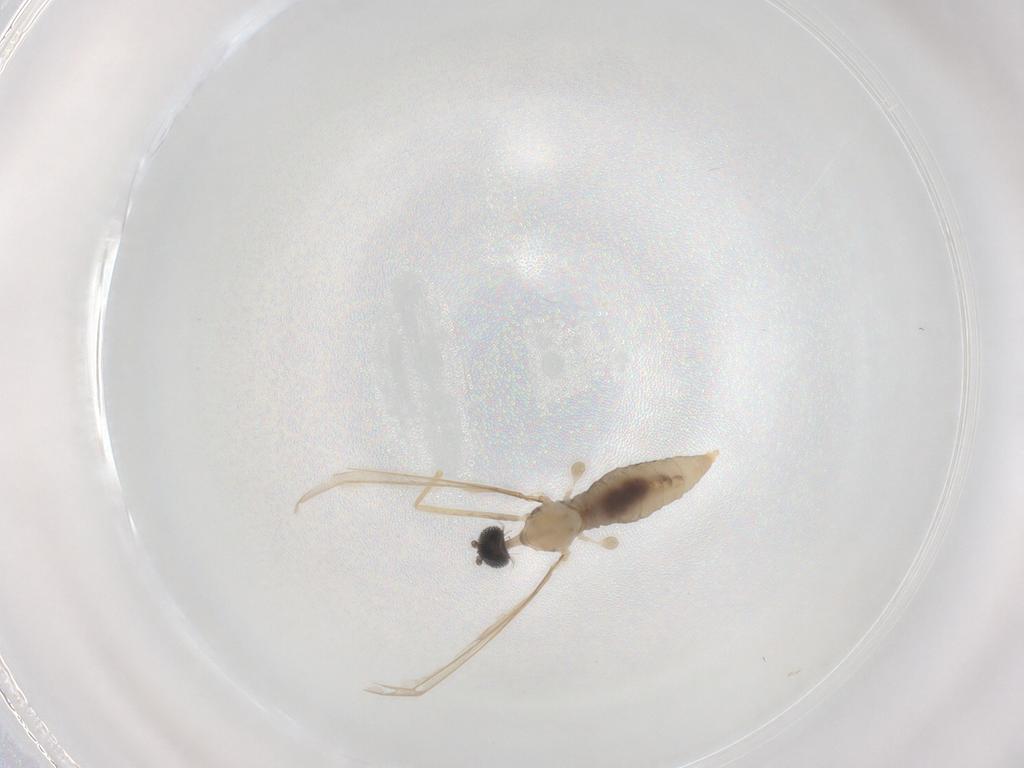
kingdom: Animalia
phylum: Arthropoda
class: Insecta
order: Diptera
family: Cecidomyiidae
